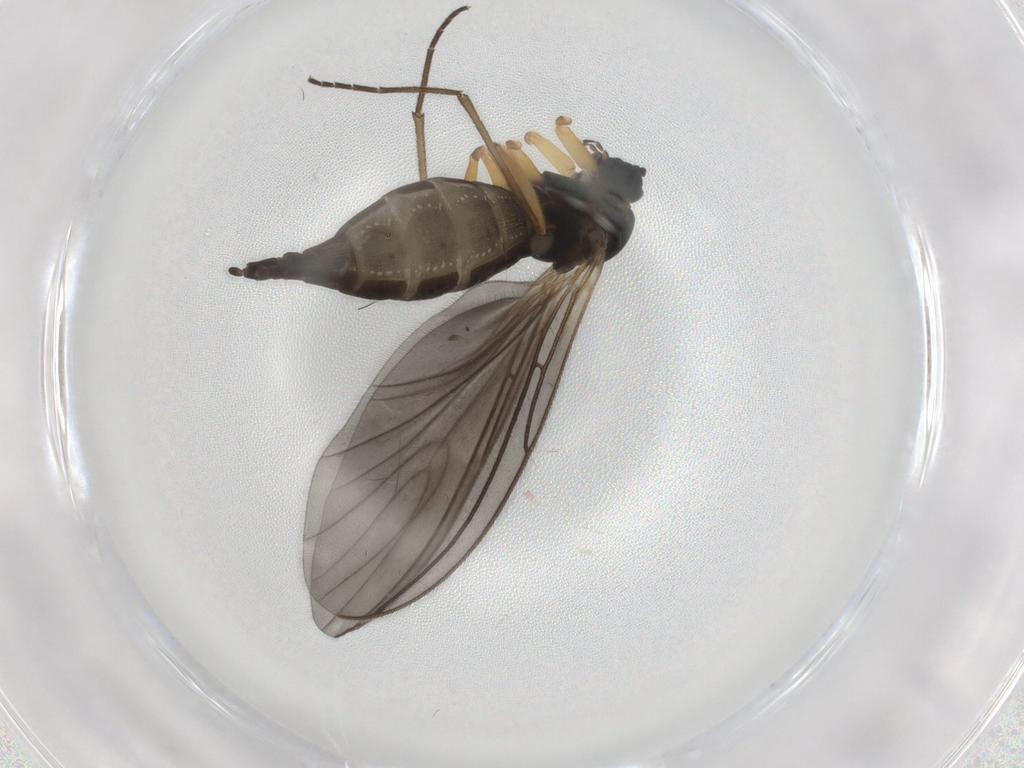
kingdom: Animalia
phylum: Arthropoda
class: Insecta
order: Diptera
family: Sciaridae
